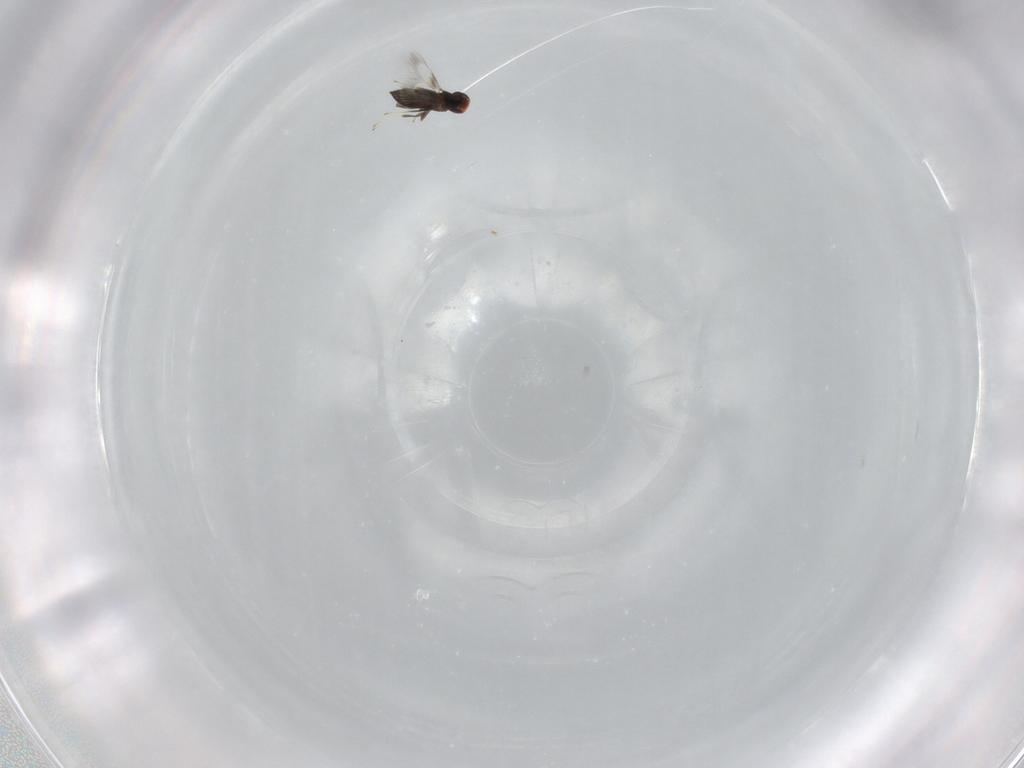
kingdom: Animalia
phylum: Arthropoda
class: Insecta
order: Hymenoptera
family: Signiphoridae
